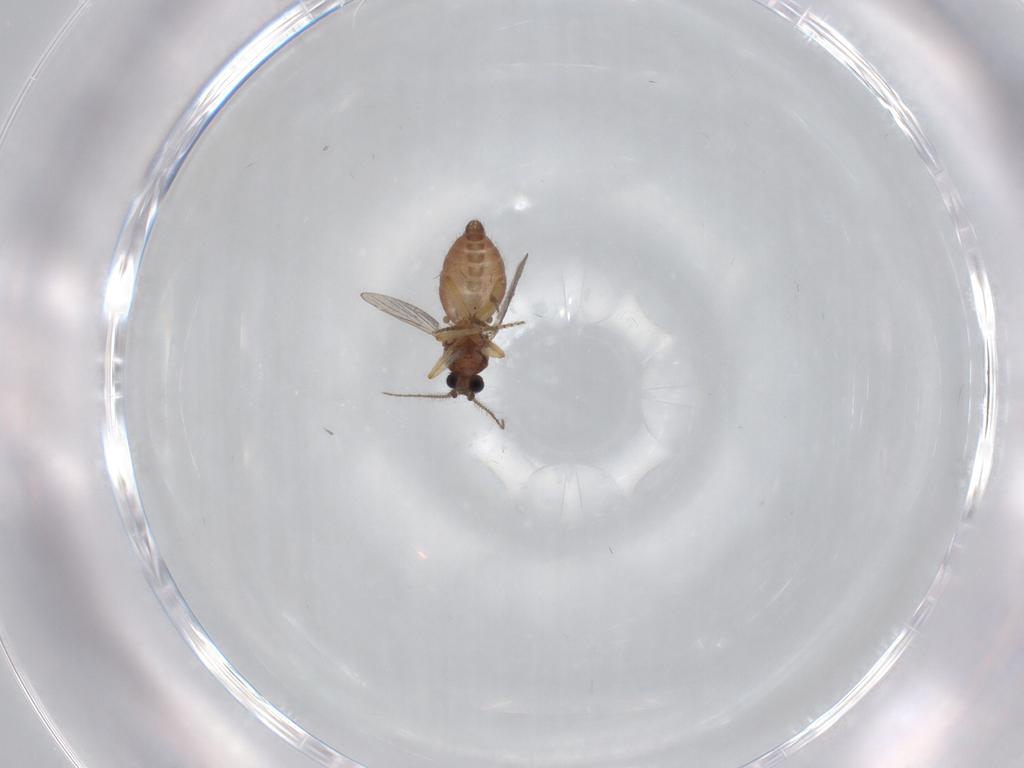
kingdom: Animalia
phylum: Arthropoda
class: Insecta
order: Diptera
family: Ceratopogonidae
